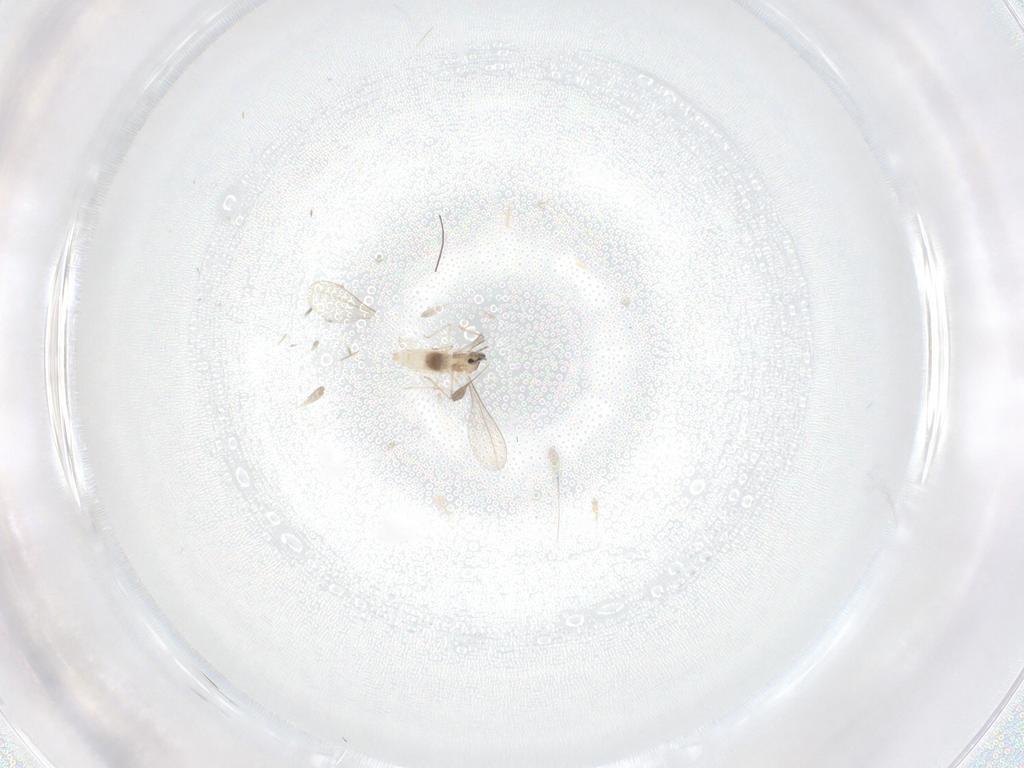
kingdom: Animalia
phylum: Arthropoda
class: Insecta
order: Diptera
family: Cecidomyiidae
